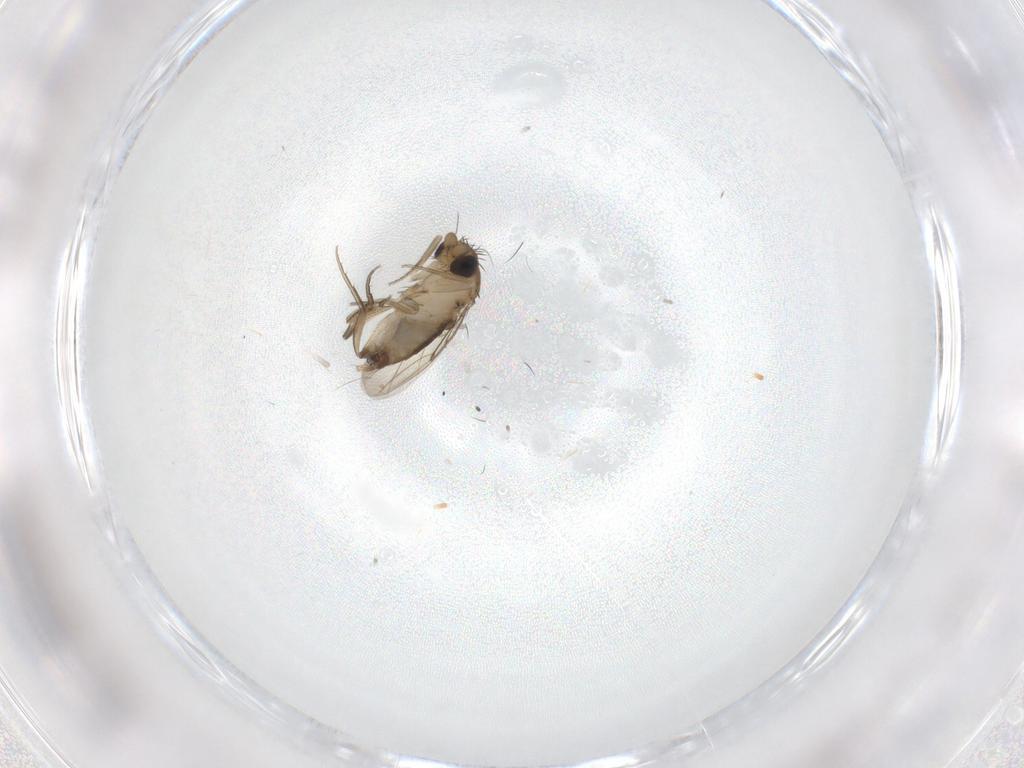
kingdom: Animalia
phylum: Arthropoda
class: Insecta
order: Diptera
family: Phoridae
